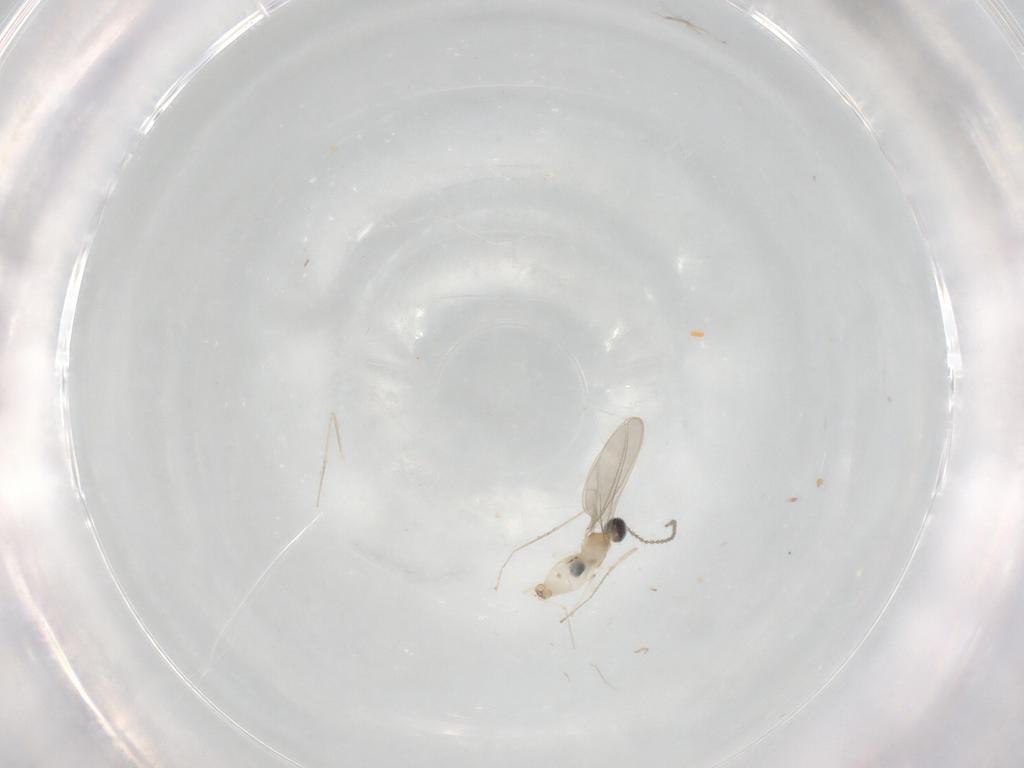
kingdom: Animalia
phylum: Arthropoda
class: Insecta
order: Diptera
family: Cecidomyiidae
